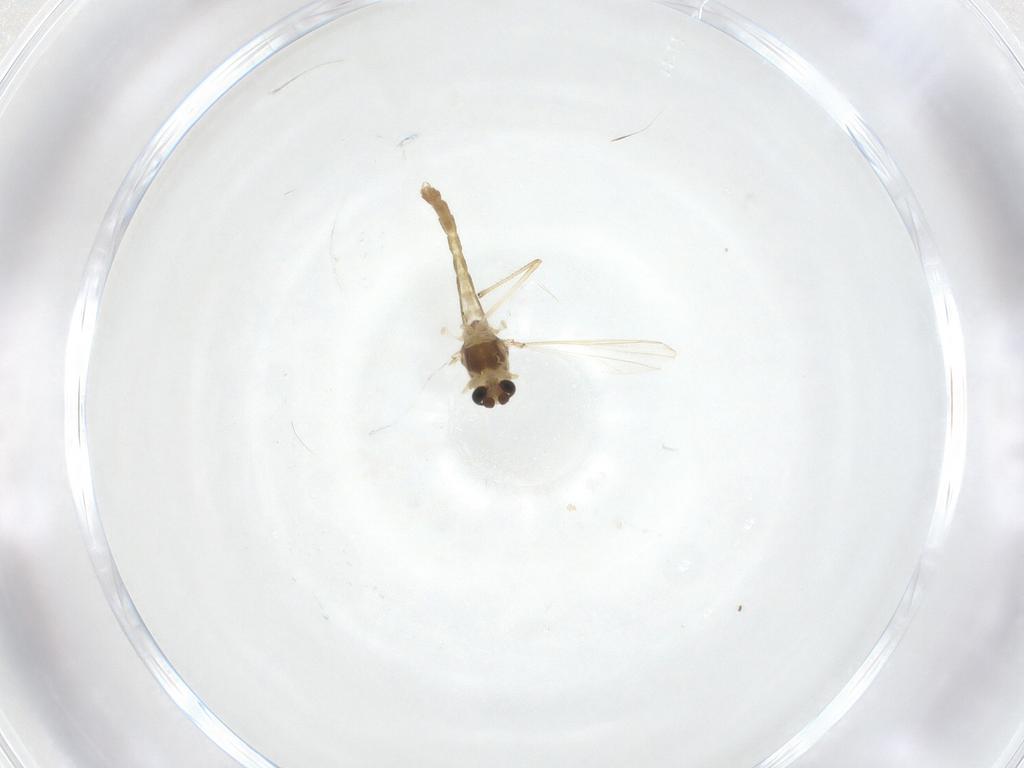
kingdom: Animalia
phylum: Arthropoda
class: Insecta
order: Diptera
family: Chironomidae
